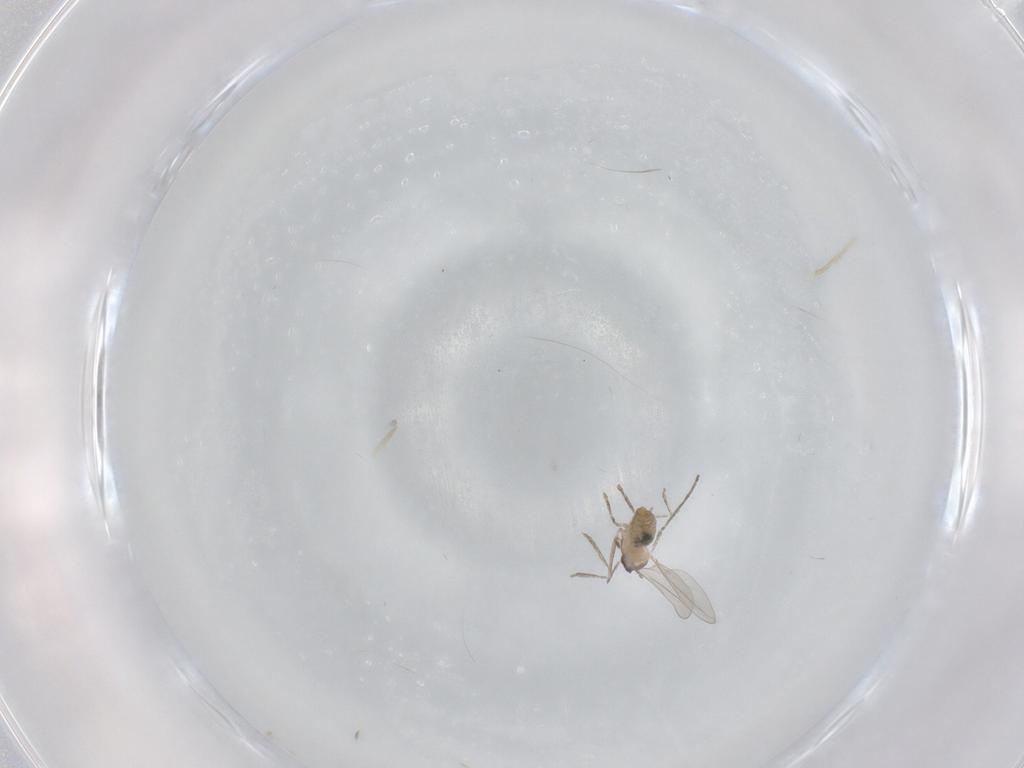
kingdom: Animalia
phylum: Arthropoda
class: Insecta
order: Diptera
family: Cecidomyiidae
